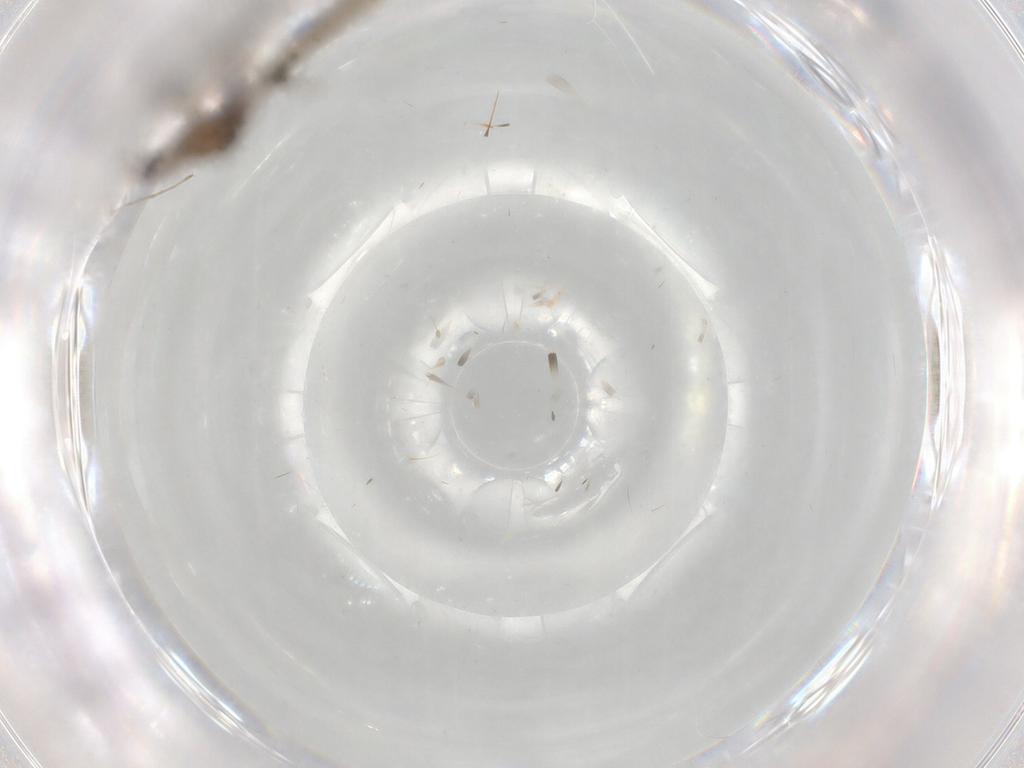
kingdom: Animalia
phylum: Arthropoda
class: Insecta
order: Diptera
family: Cecidomyiidae
